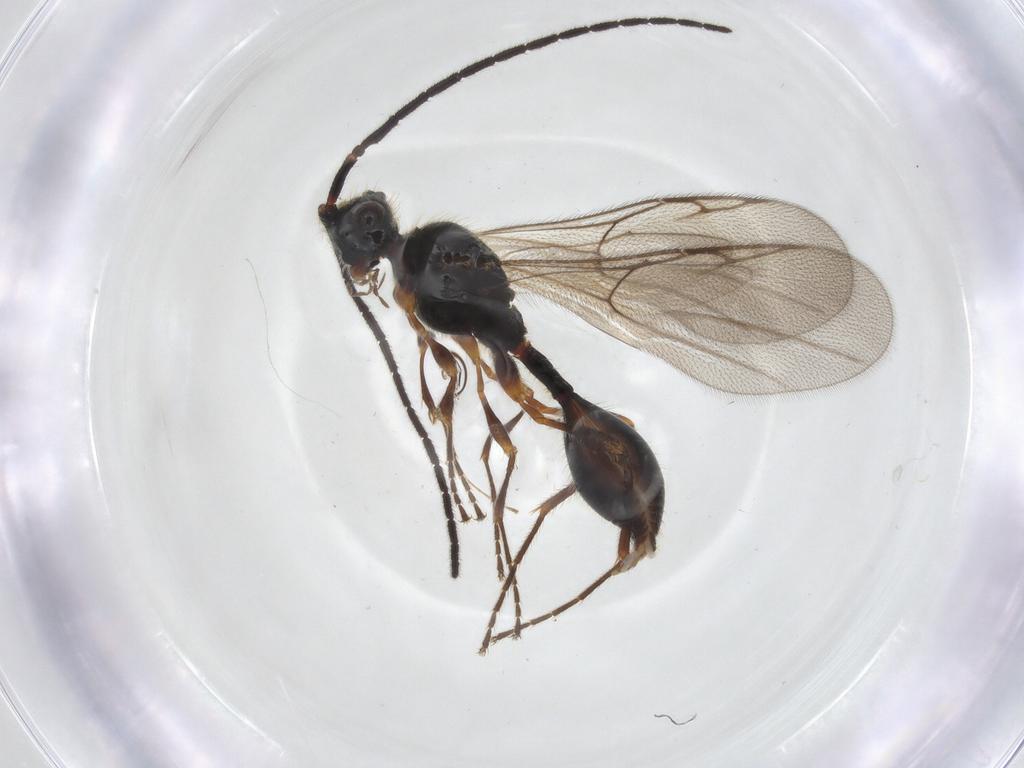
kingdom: Animalia
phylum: Arthropoda
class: Insecta
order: Hymenoptera
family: Diapriidae
